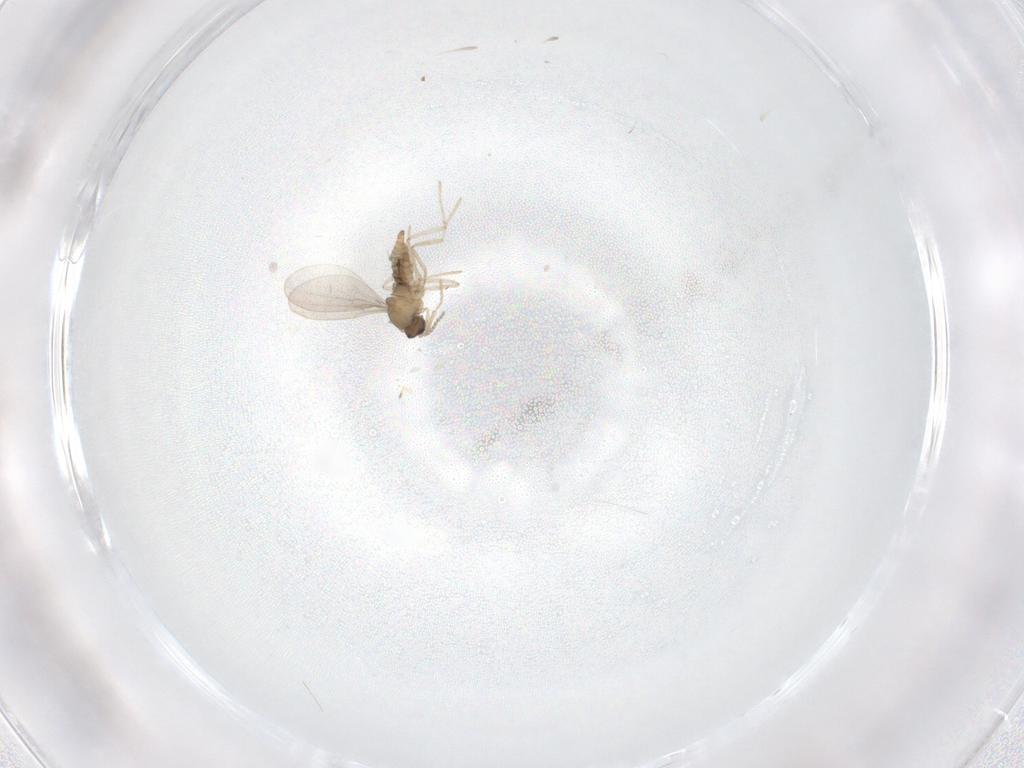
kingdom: Animalia
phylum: Arthropoda
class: Insecta
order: Diptera
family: Cecidomyiidae
